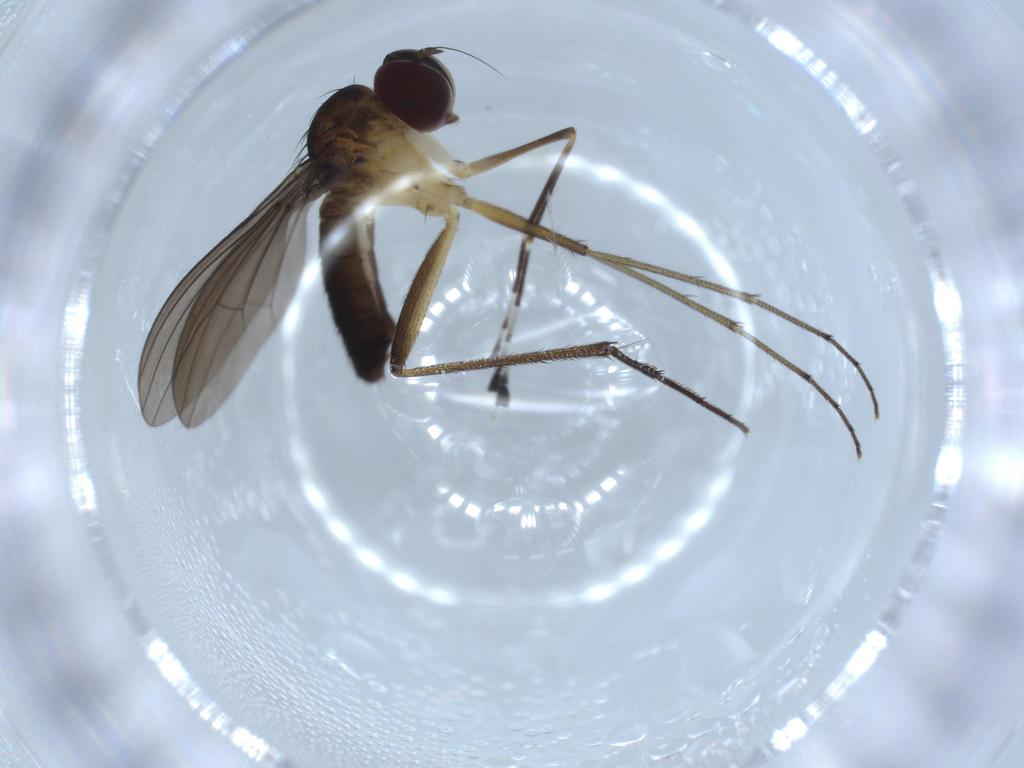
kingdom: Animalia
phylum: Arthropoda
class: Insecta
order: Diptera
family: Dolichopodidae
